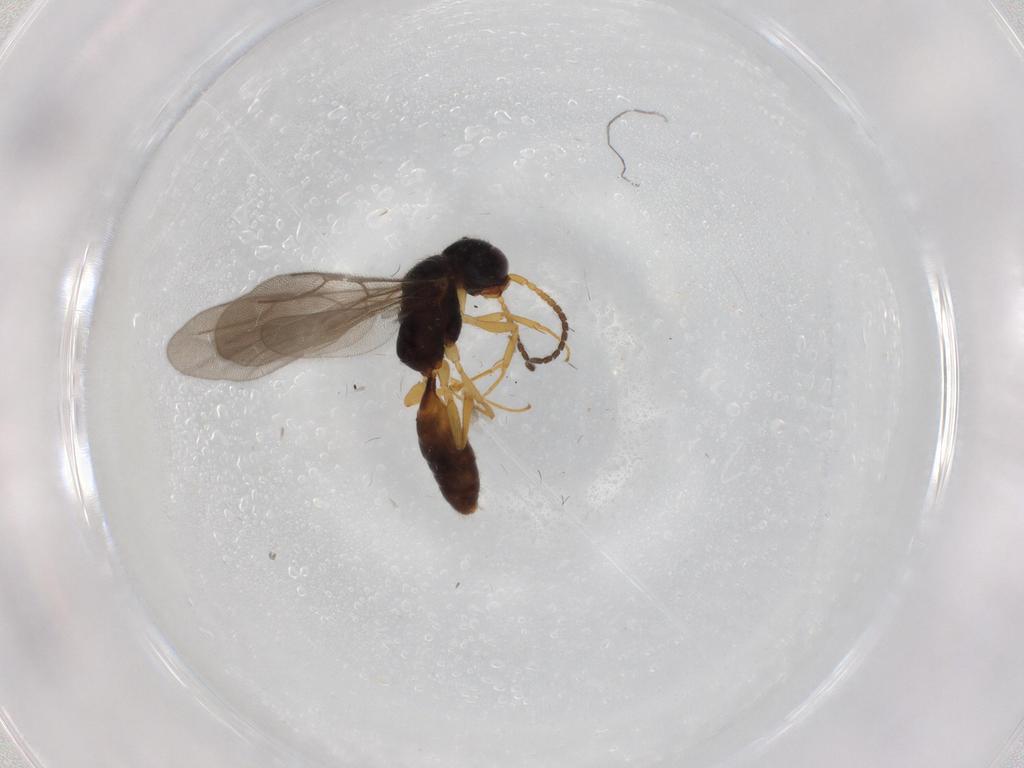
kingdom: Animalia
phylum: Arthropoda
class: Insecta
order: Hymenoptera
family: Bethylidae
